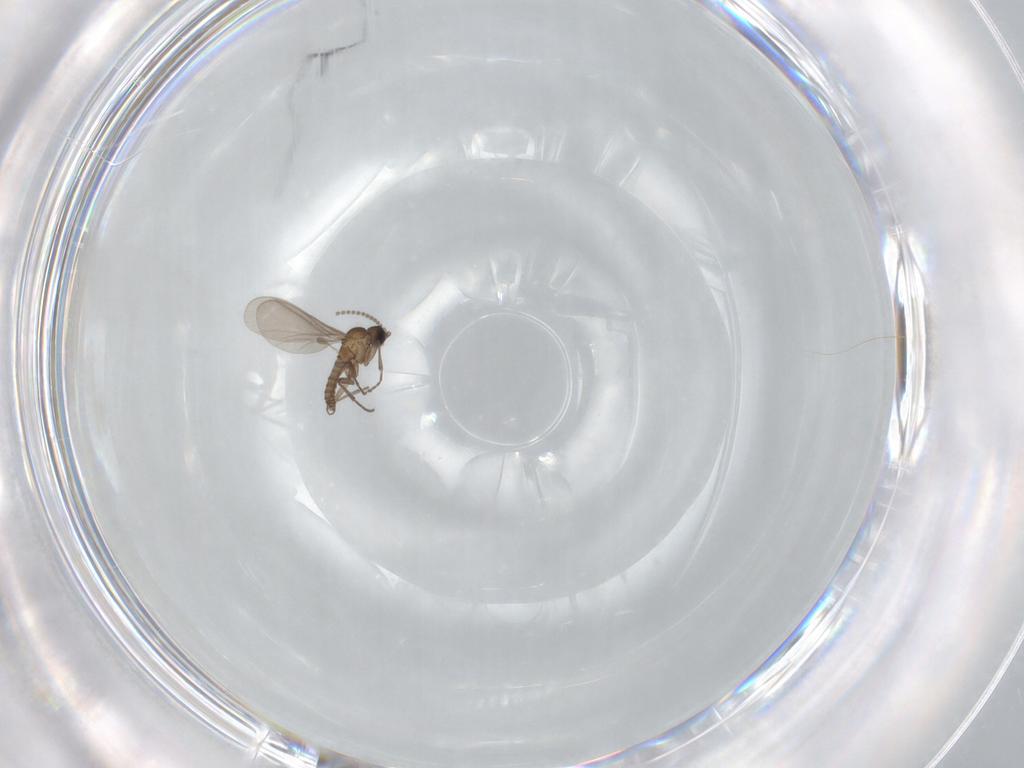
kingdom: Animalia
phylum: Arthropoda
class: Insecta
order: Diptera
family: Sciaridae
